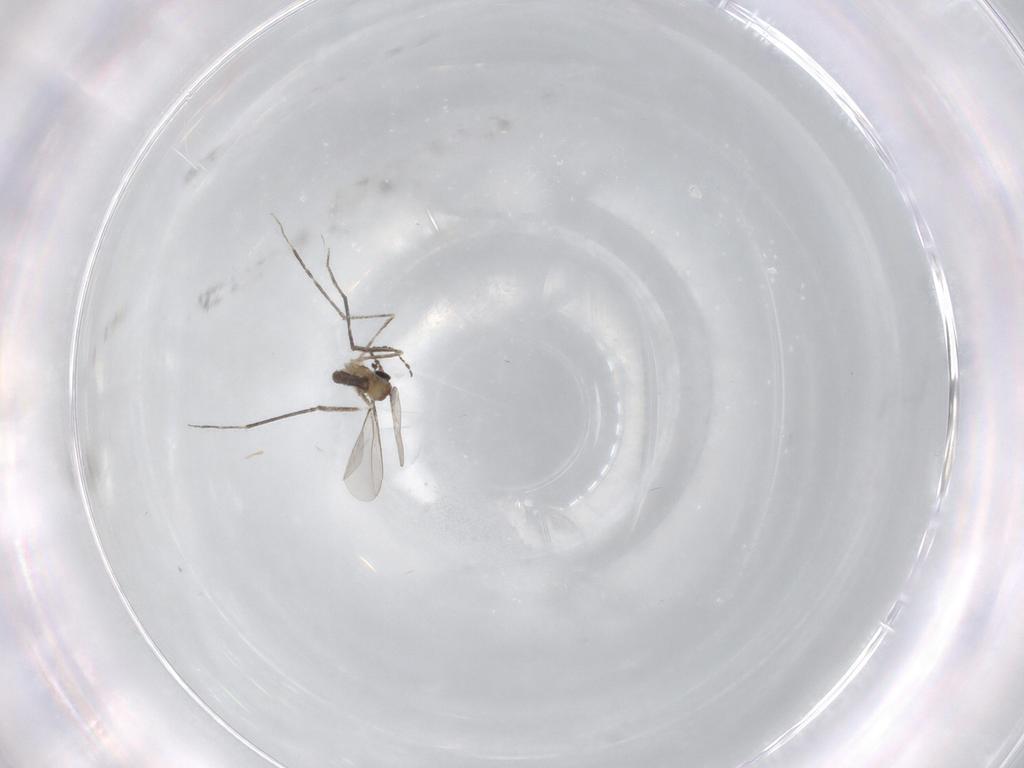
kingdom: Animalia
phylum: Arthropoda
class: Insecta
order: Diptera
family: Cecidomyiidae
